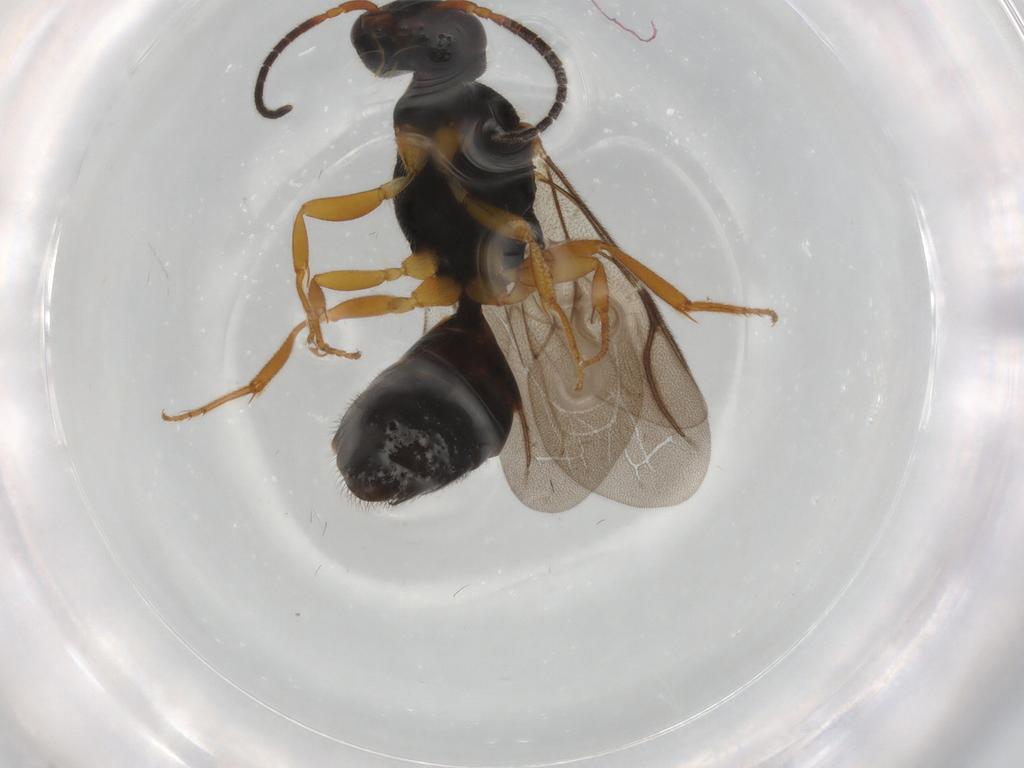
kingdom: Animalia
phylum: Arthropoda
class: Insecta
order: Hymenoptera
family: Bethylidae
